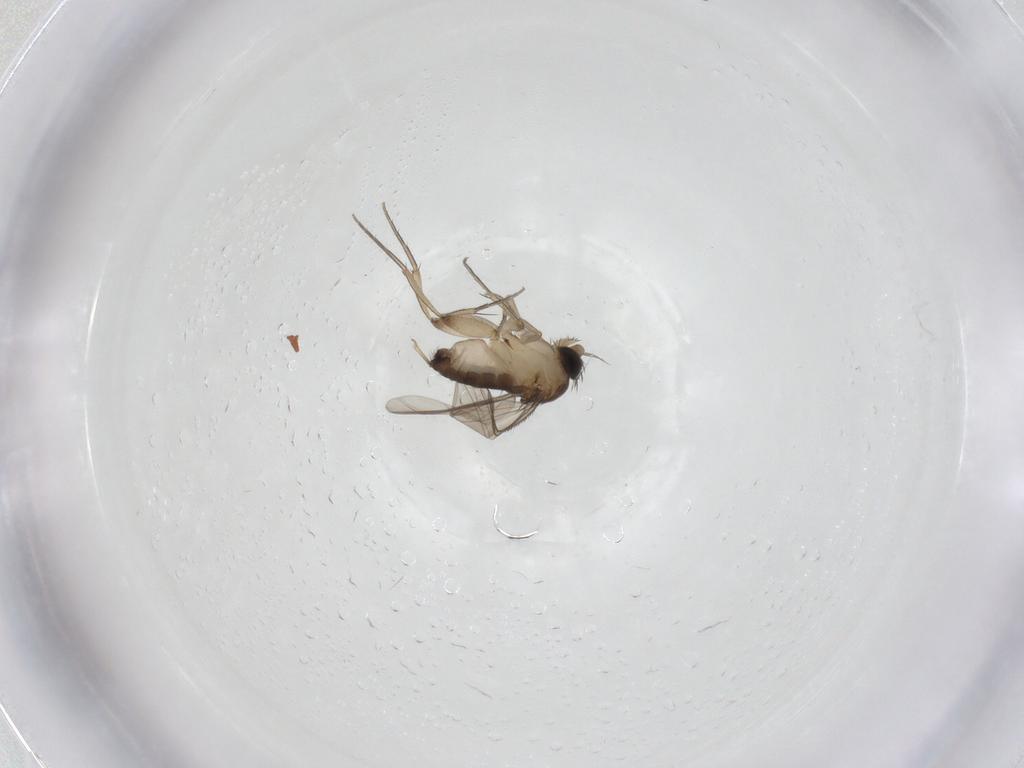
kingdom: Animalia
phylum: Arthropoda
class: Insecta
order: Diptera
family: Phoridae
